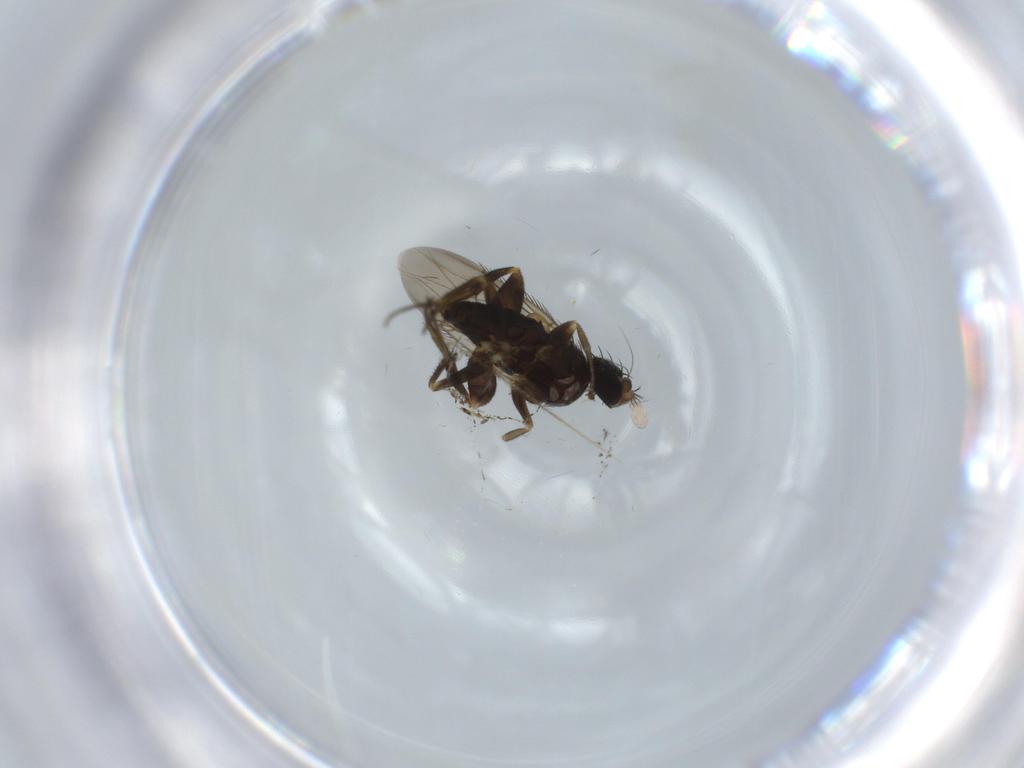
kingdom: Animalia
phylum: Arthropoda
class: Insecta
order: Diptera
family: Phoridae
